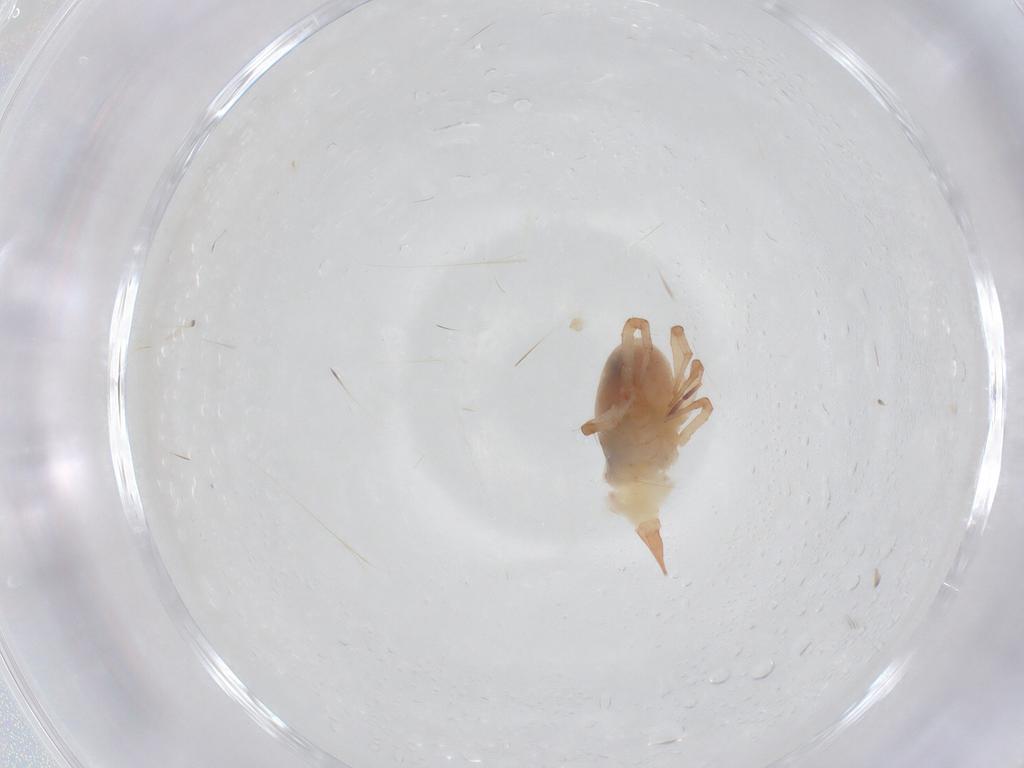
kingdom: Animalia
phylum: Arthropoda
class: Arachnida
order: Trombidiformes
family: Bdellidae
